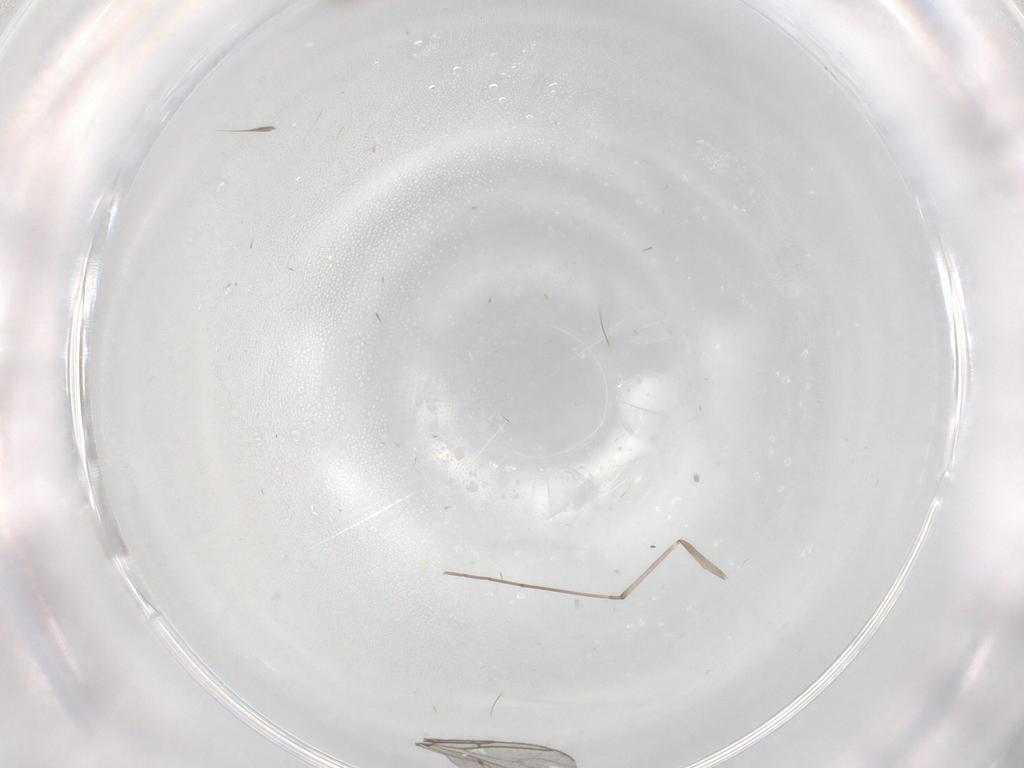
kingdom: Animalia
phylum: Arthropoda
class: Insecta
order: Diptera
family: Cecidomyiidae
